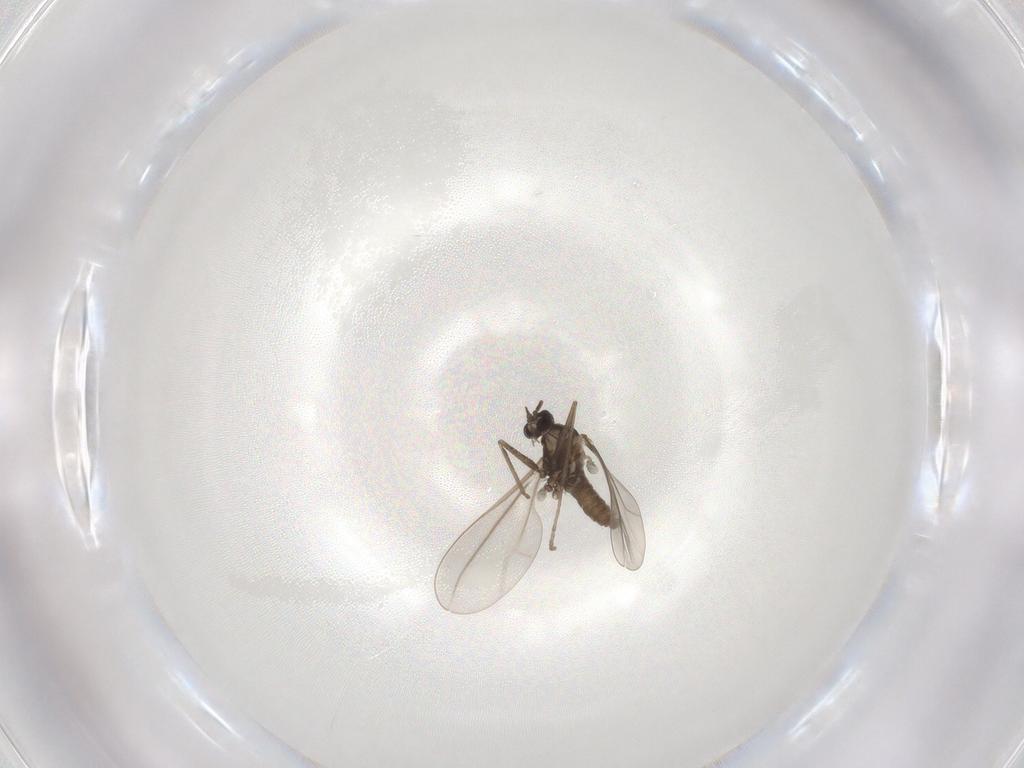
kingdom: Animalia
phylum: Arthropoda
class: Insecta
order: Diptera
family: Cecidomyiidae
